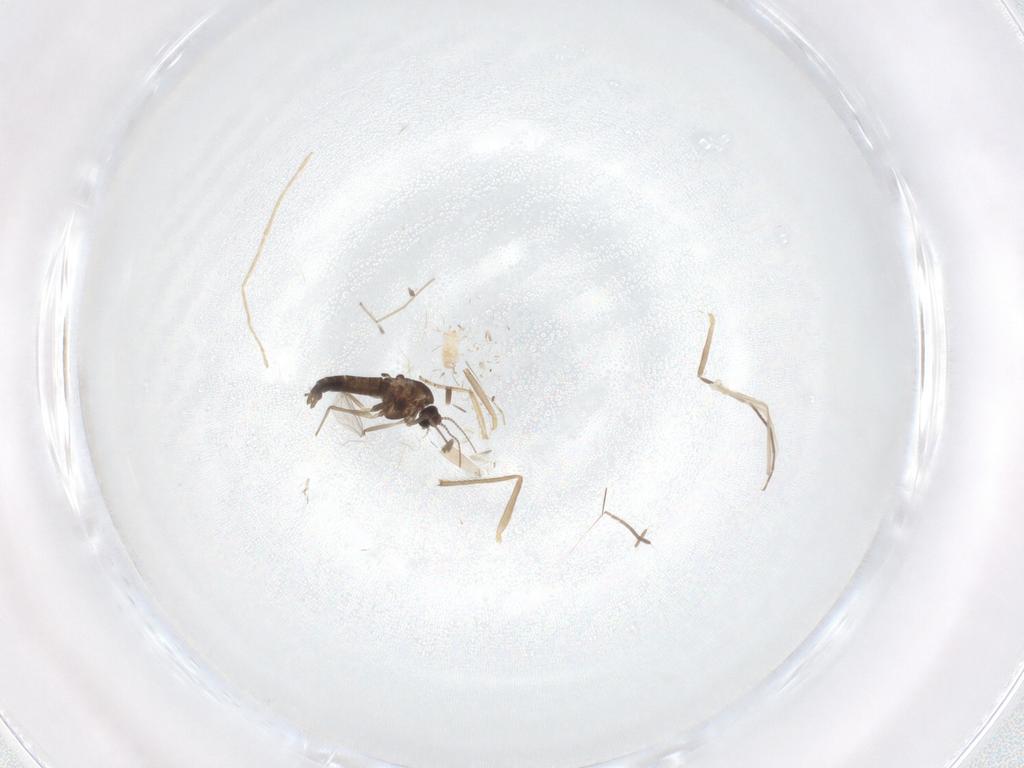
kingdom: Animalia
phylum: Arthropoda
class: Insecta
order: Diptera
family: Chironomidae
